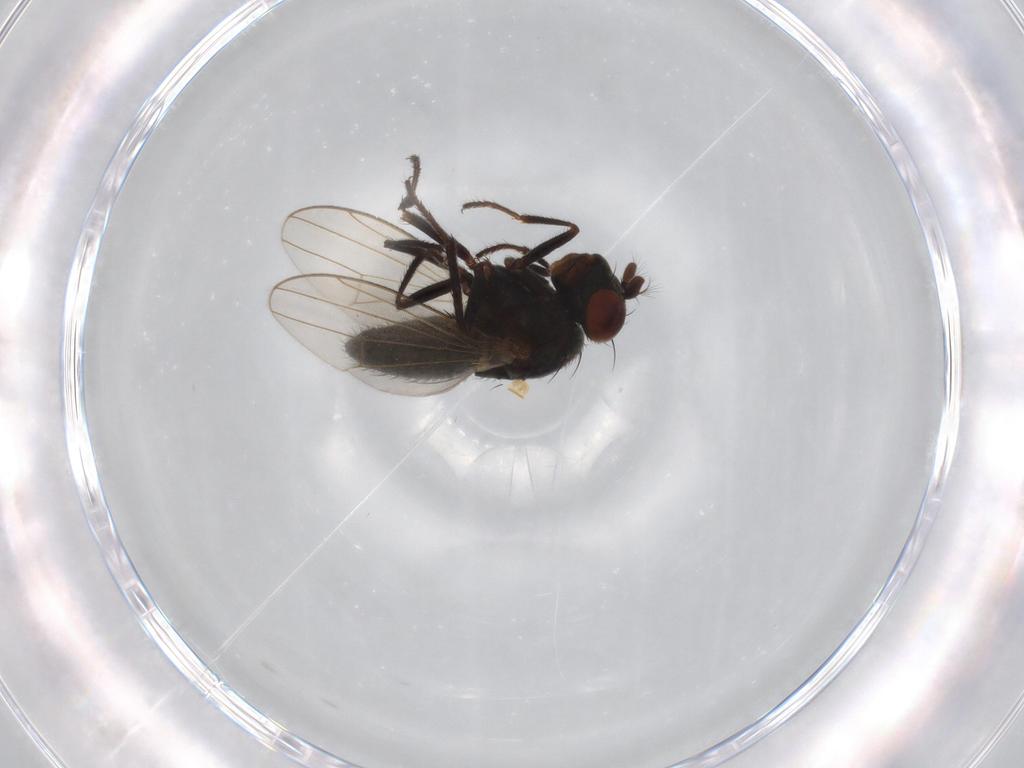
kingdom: Animalia
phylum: Arthropoda
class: Insecta
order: Diptera
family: Ephydridae
